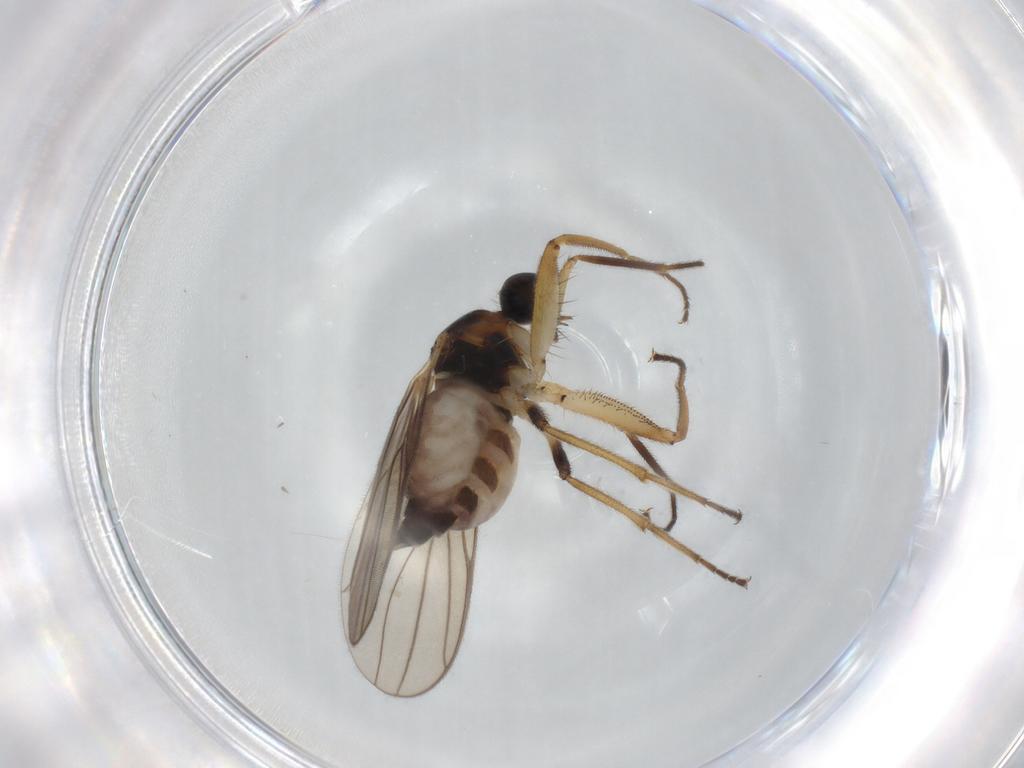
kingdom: Animalia
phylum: Arthropoda
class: Insecta
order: Diptera
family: Hybotidae
